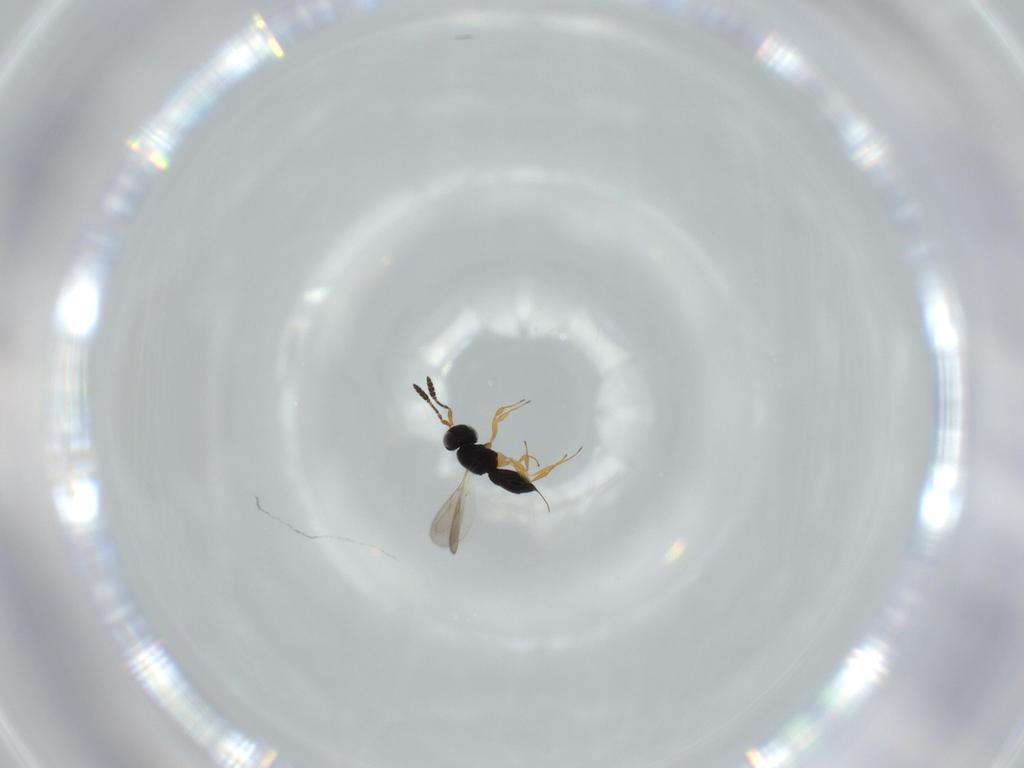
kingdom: Animalia
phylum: Arthropoda
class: Insecta
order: Hymenoptera
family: Scelionidae
